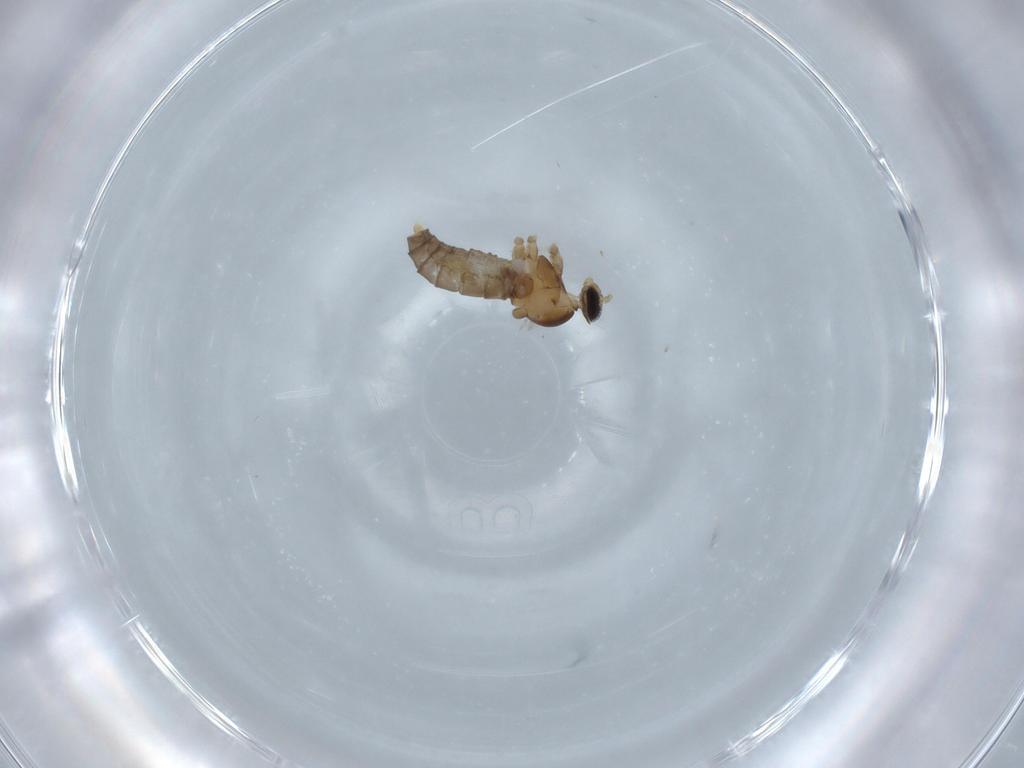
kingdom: Animalia
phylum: Arthropoda
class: Insecta
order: Diptera
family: Cecidomyiidae
